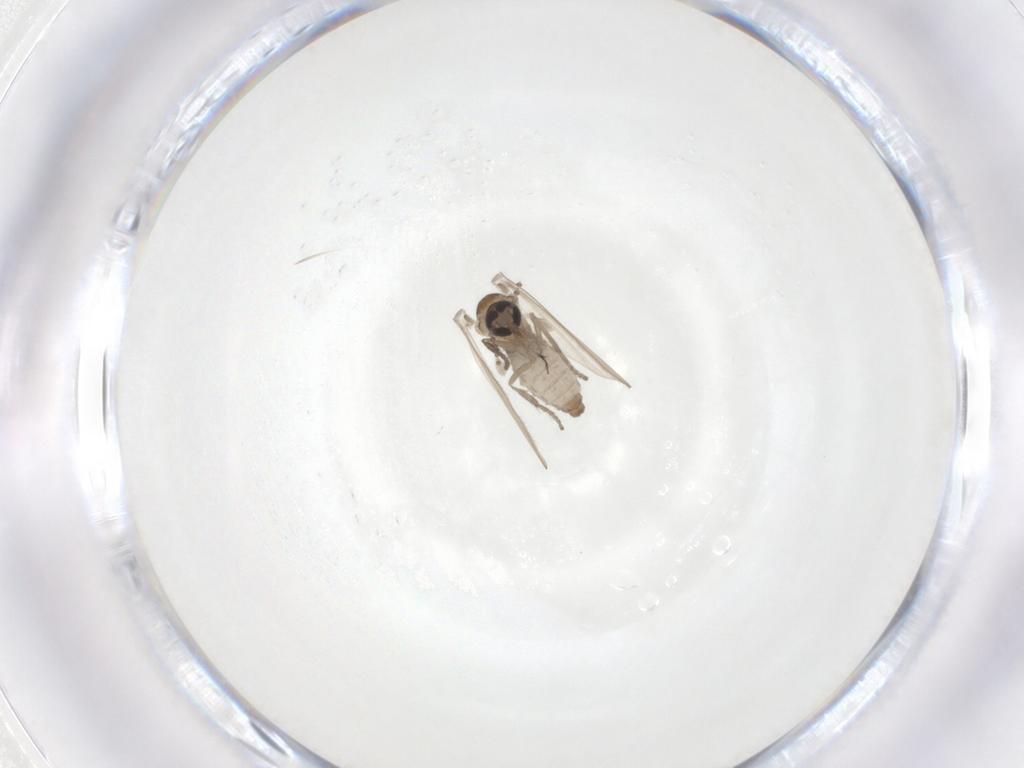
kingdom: Animalia
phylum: Arthropoda
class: Insecta
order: Diptera
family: Psychodidae
